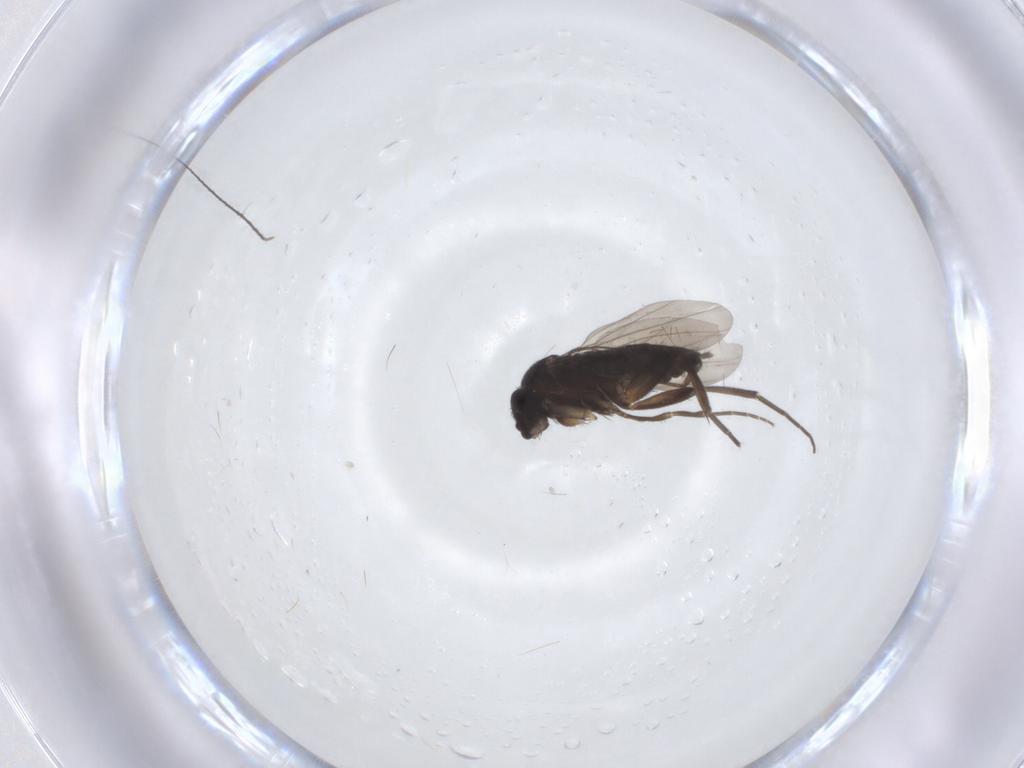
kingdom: Animalia
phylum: Arthropoda
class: Insecta
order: Diptera
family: Phoridae
